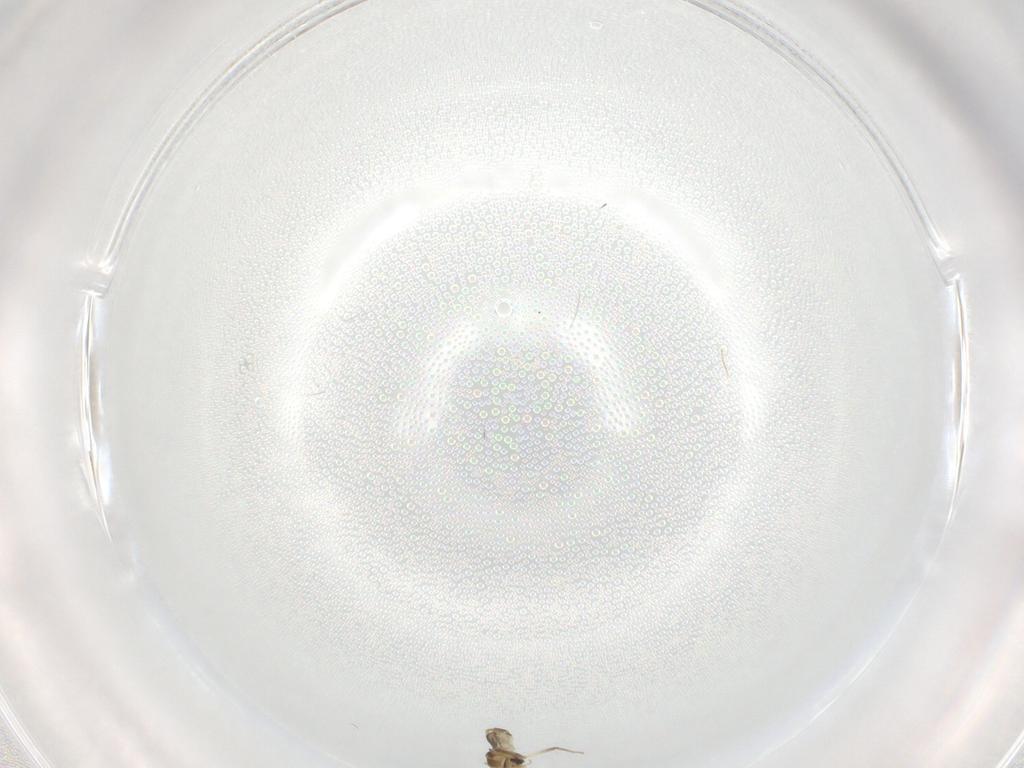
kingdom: Animalia
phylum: Arthropoda
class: Insecta
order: Diptera
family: Chironomidae
